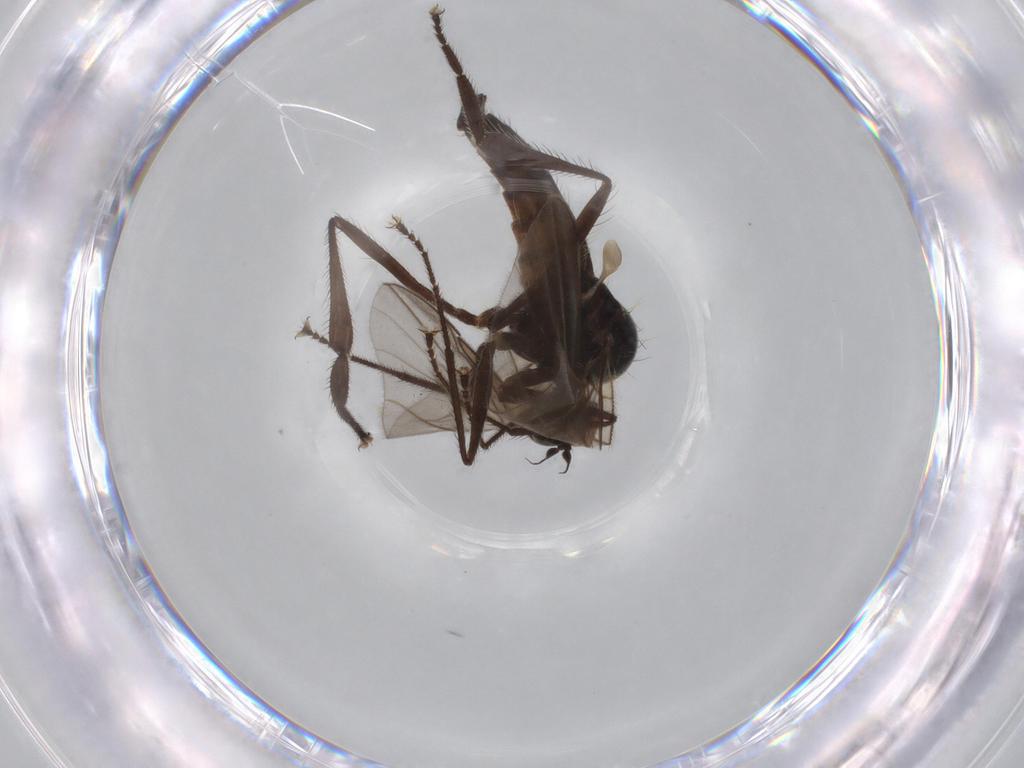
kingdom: Animalia
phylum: Arthropoda
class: Insecta
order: Diptera
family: Hybotidae
